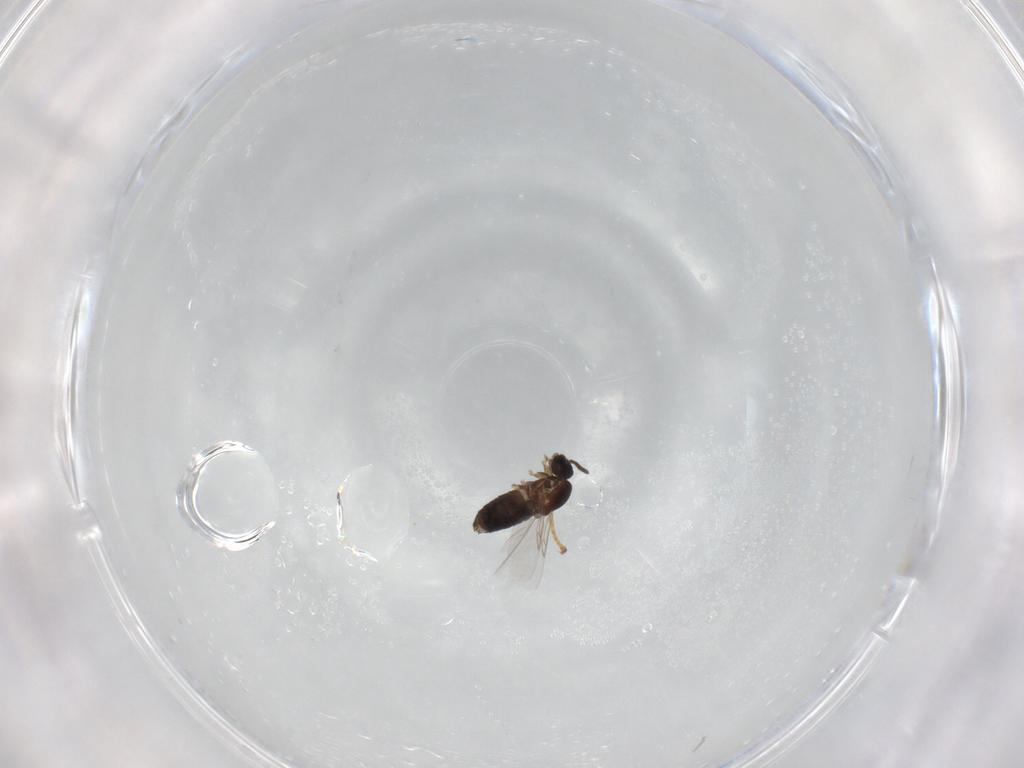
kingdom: Animalia
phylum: Arthropoda
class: Insecta
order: Diptera
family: Scatopsidae
